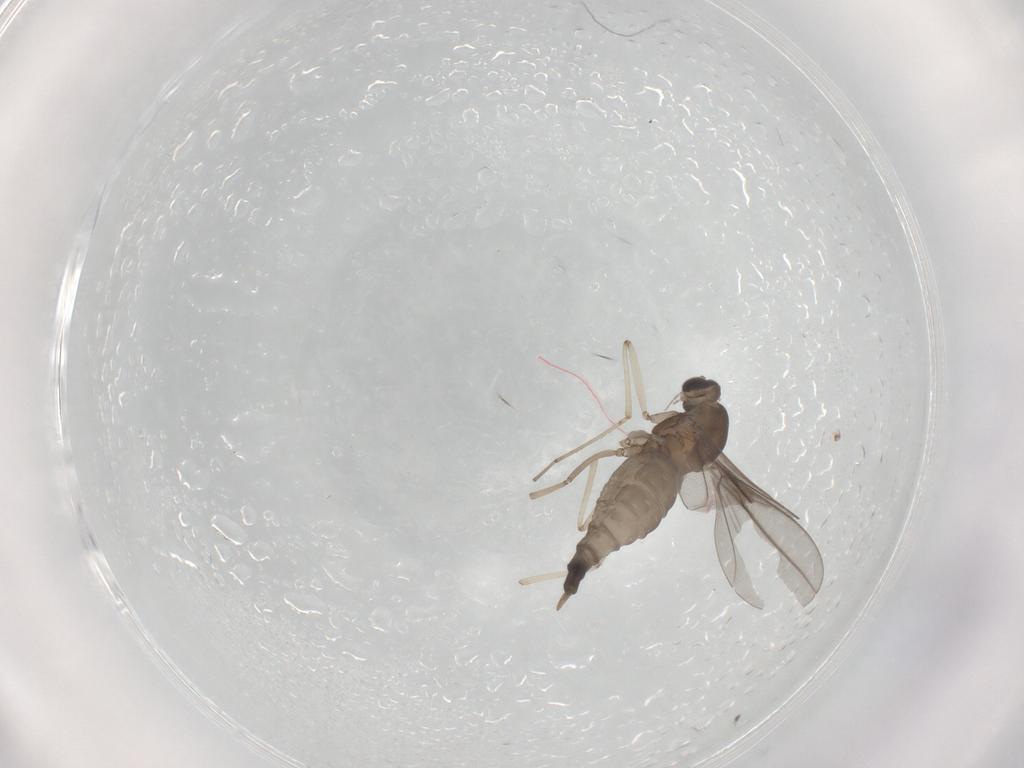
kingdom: Animalia
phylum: Arthropoda
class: Insecta
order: Diptera
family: Cecidomyiidae
